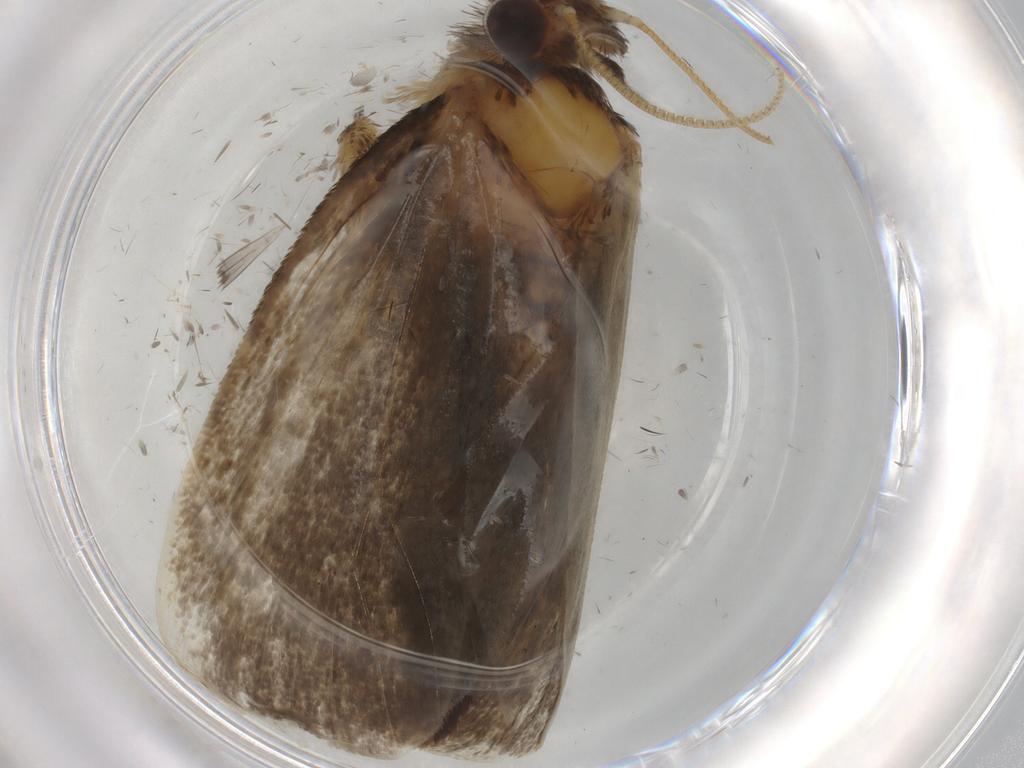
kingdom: Animalia
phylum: Arthropoda
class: Insecta
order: Lepidoptera
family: Tineidae
